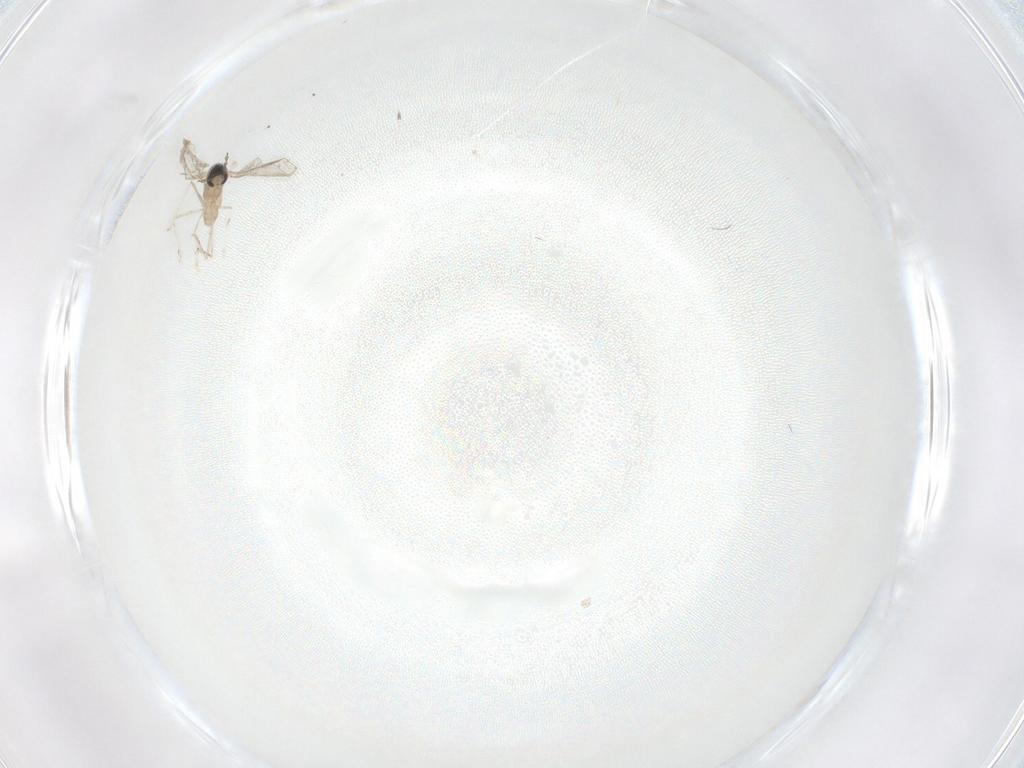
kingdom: Animalia
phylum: Arthropoda
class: Insecta
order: Diptera
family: Cecidomyiidae
